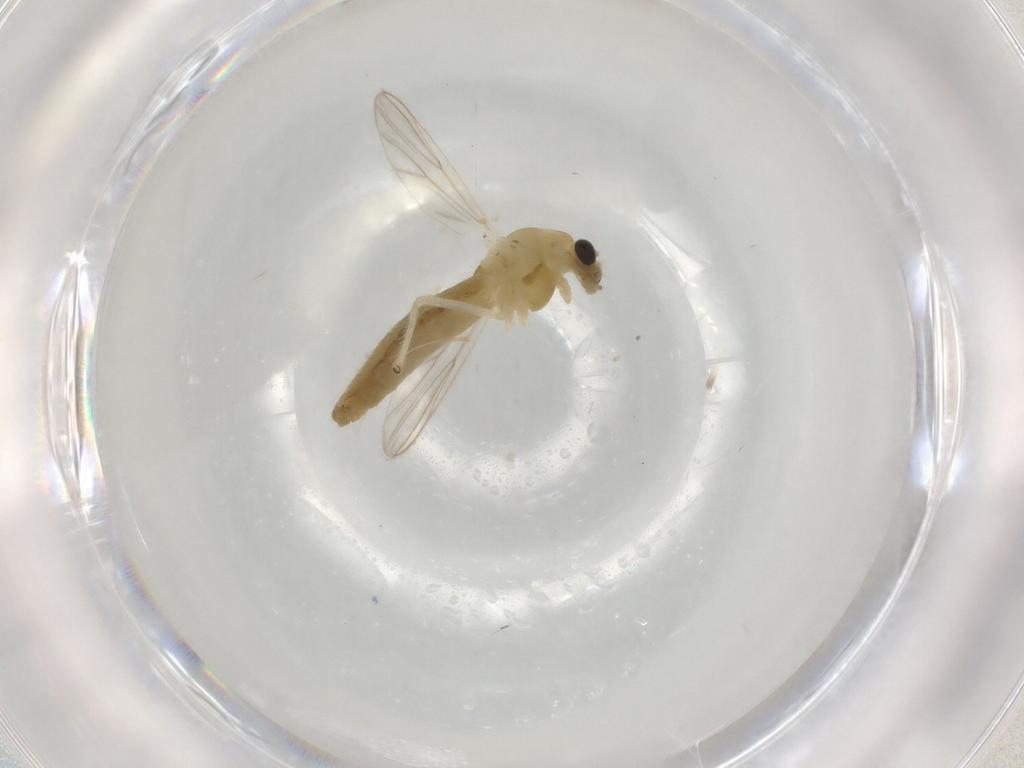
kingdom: Animalia
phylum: Arthropoda
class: Insecta
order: Diptera
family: Chironomidae
